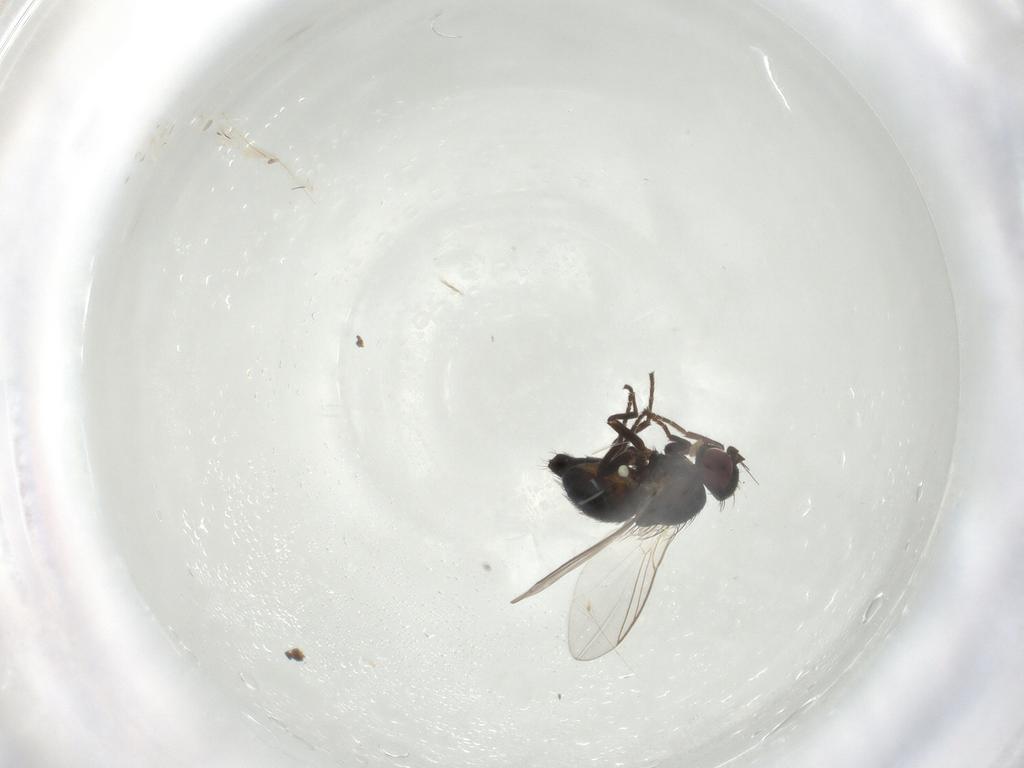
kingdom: Animalia
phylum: Arthropoda
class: Insecta
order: Diptera
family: Agromyzidae
